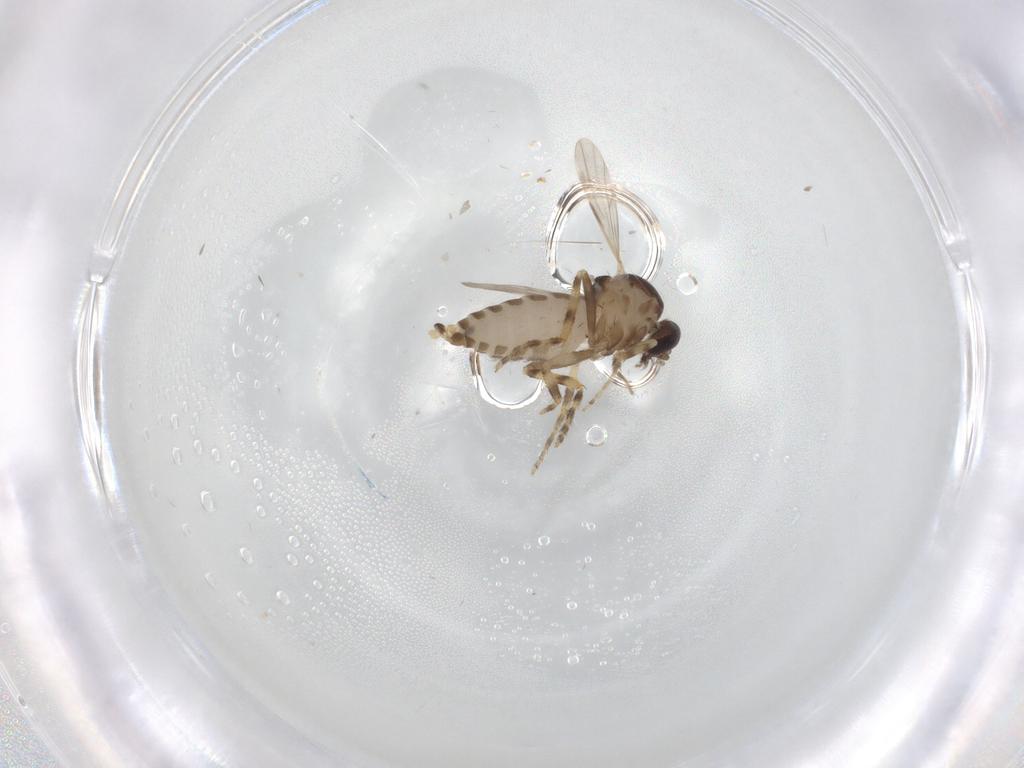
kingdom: Animalia
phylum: Arthropoda
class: Insecta
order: Diptera
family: Ceratopogonidae
